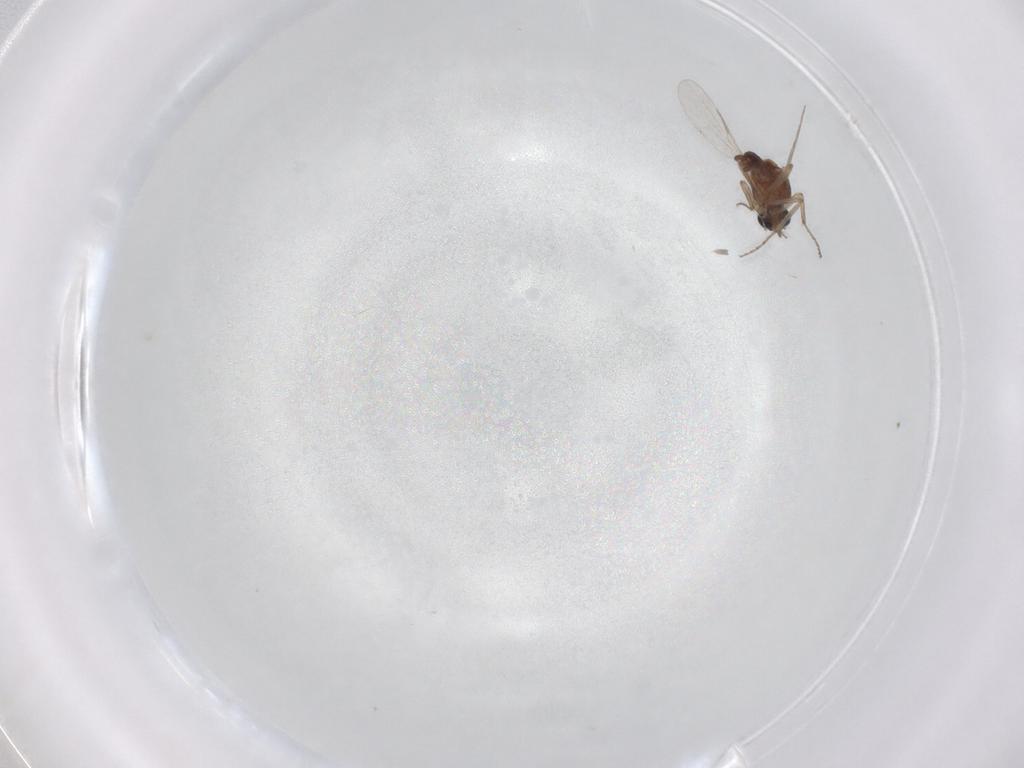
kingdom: Animalia
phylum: Arthropoda
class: Insecta
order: Diptera
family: Ceratopogonidae
